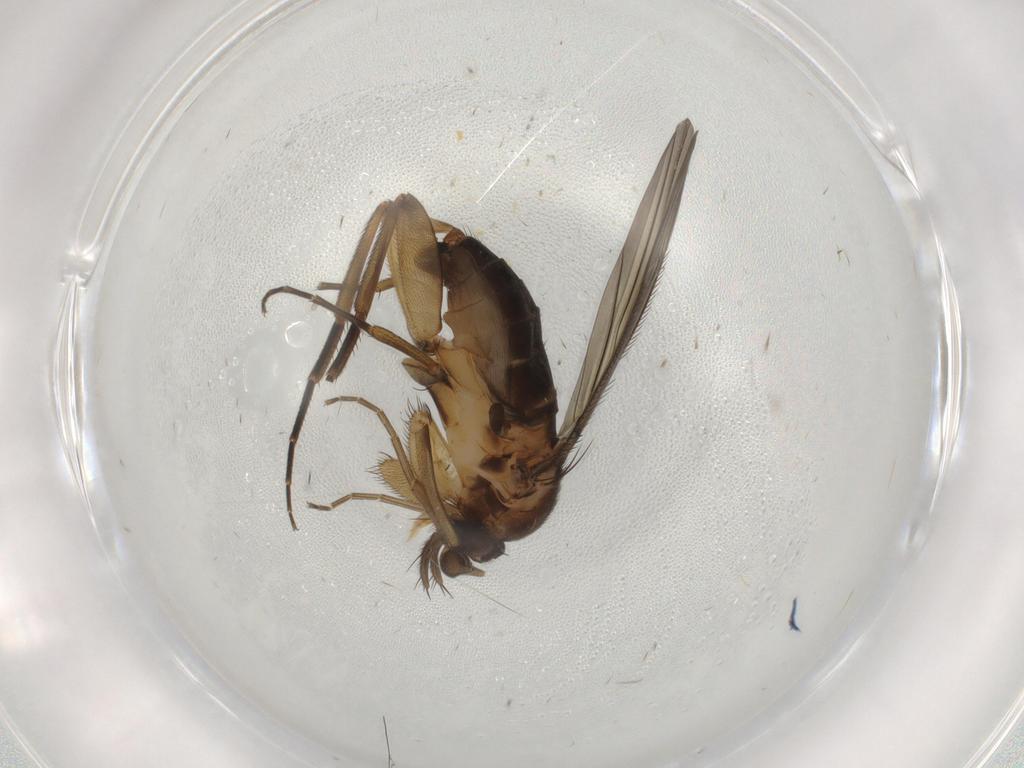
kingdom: Animalia
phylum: Arthropoda
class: Insecta
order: Diptera
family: Phoridae
